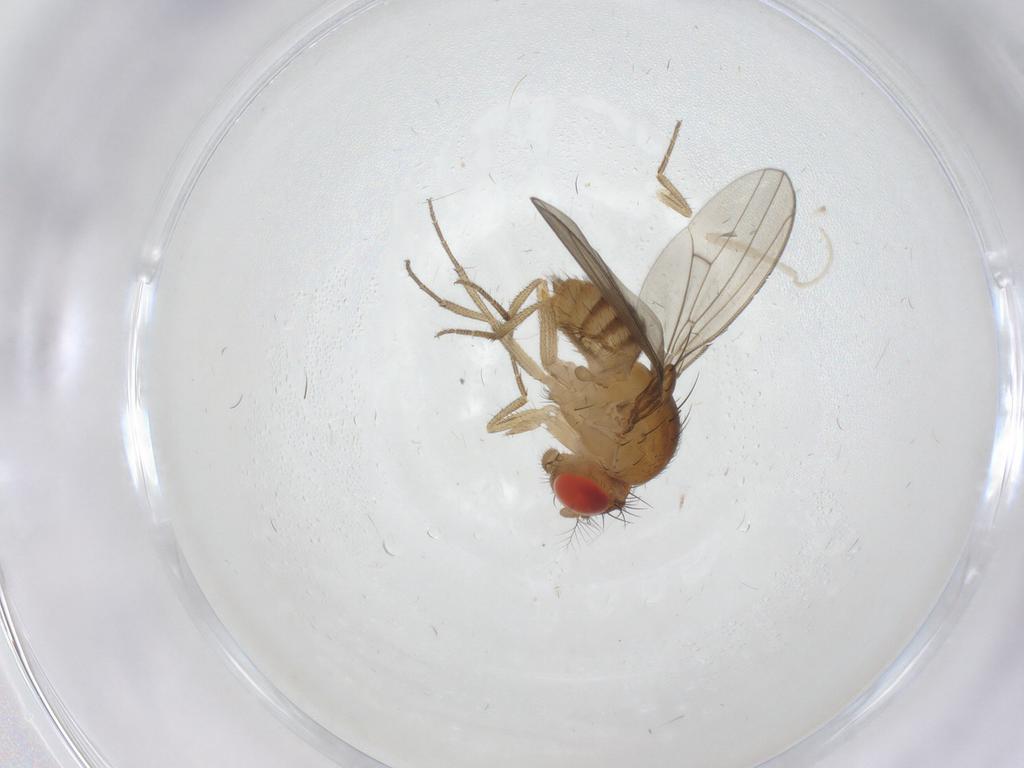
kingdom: Animalia
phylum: Arthropoda
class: Insecta
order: Diptera
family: Drosophilidae
